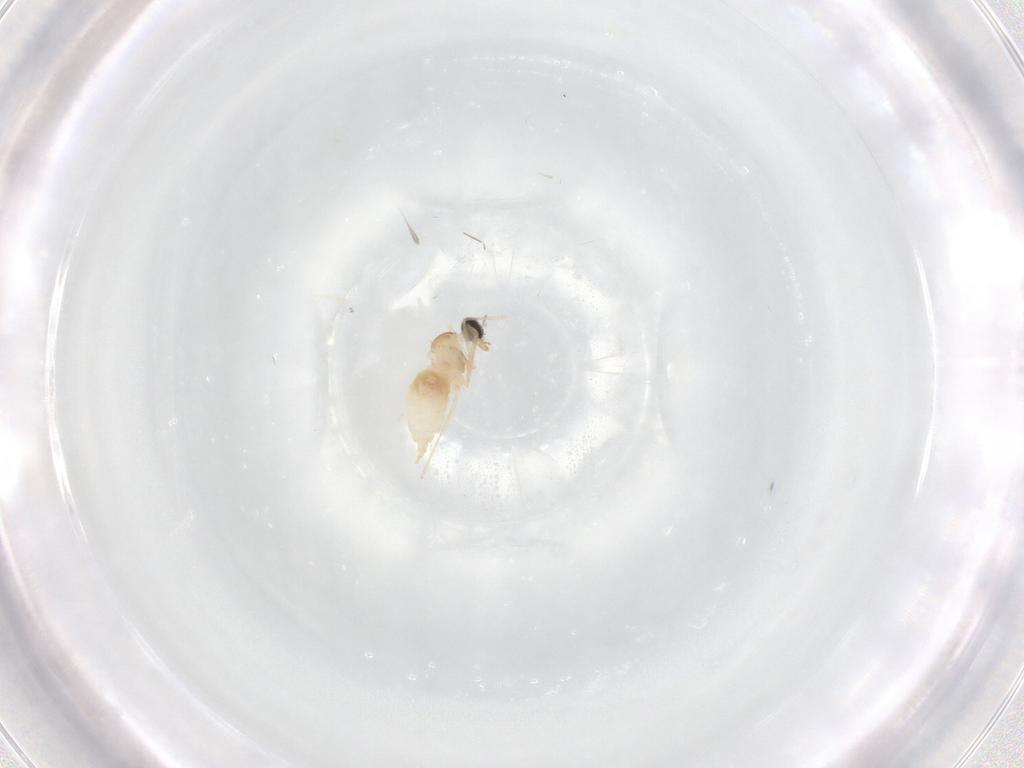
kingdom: Animalia
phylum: Arthropoda
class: Insecta
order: Diptera
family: Cecidomyiidae
